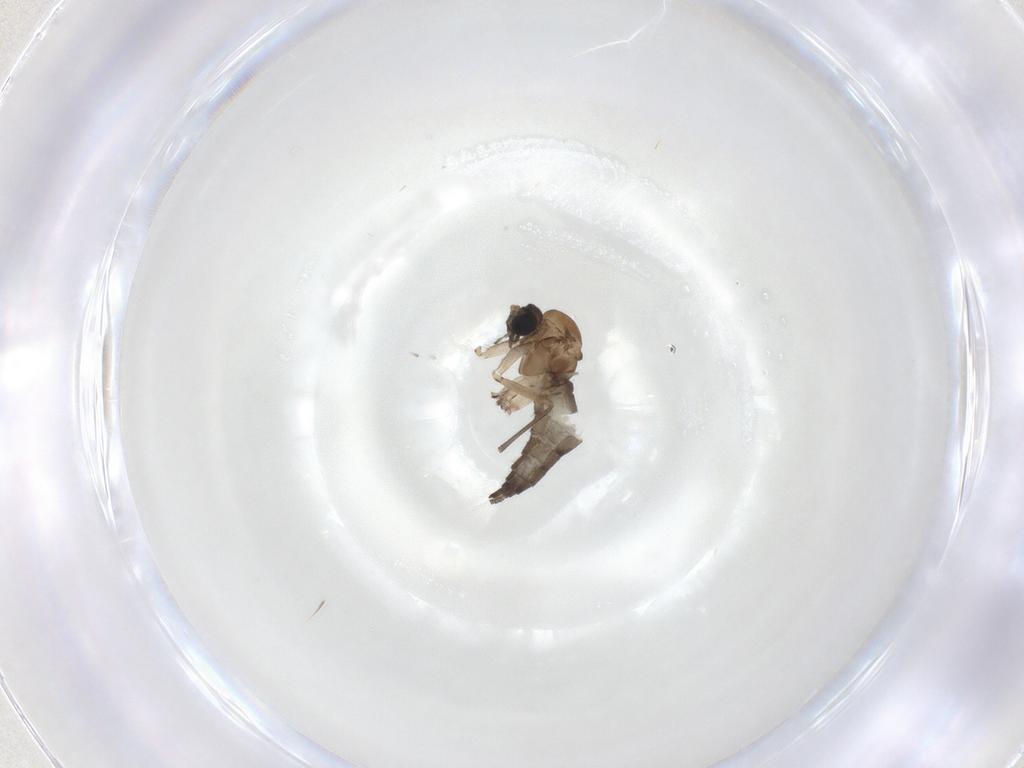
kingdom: Animalia
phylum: Arthropoda
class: Insecta
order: Diptera
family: Sciaridae
